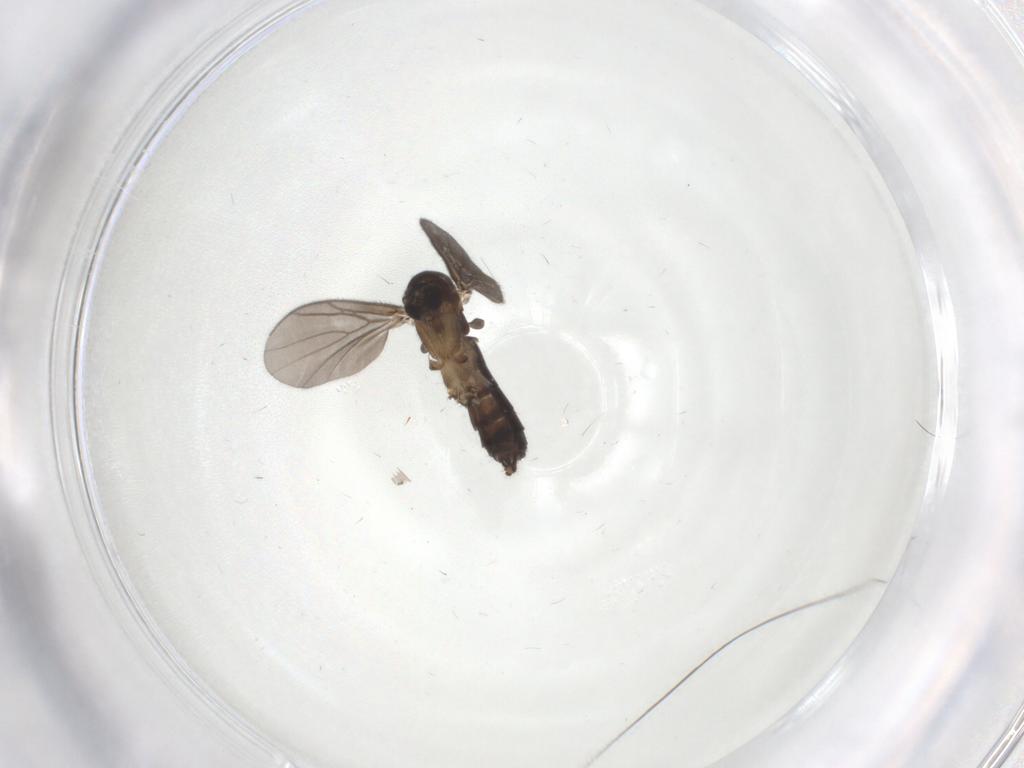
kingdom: Animalia
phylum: Arthropoda
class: Insecta
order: Diptera
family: Mycetophilidae
